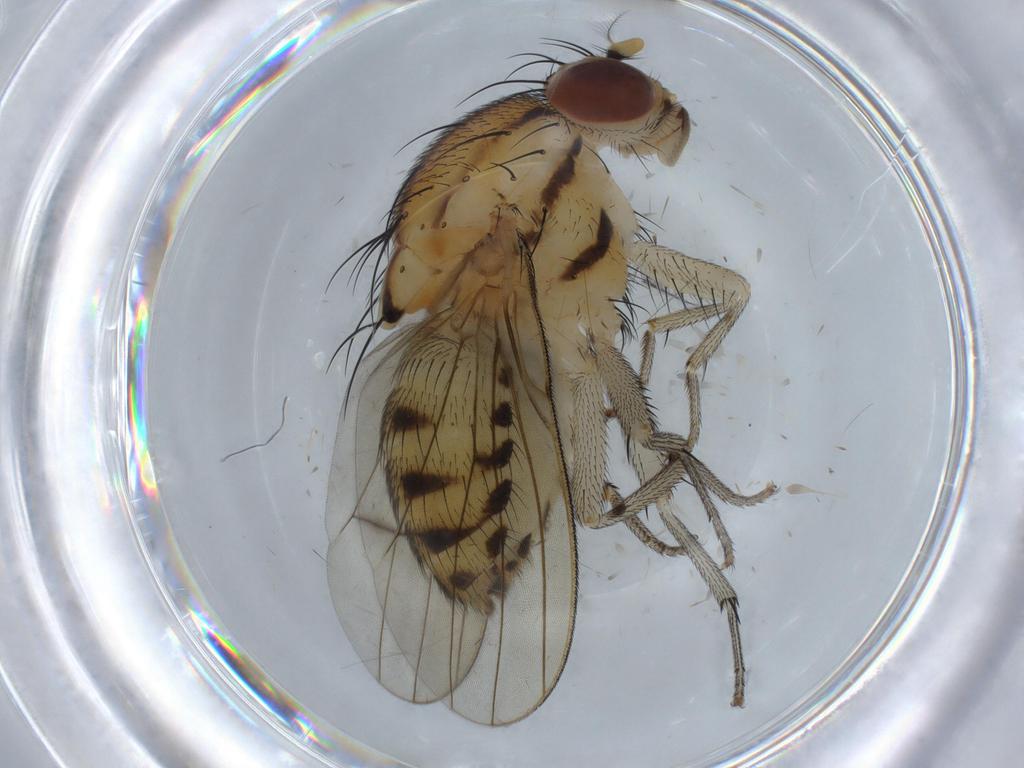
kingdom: Animalia
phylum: Arthropoda
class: Insecta
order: Diptera
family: Lauxaniidae
